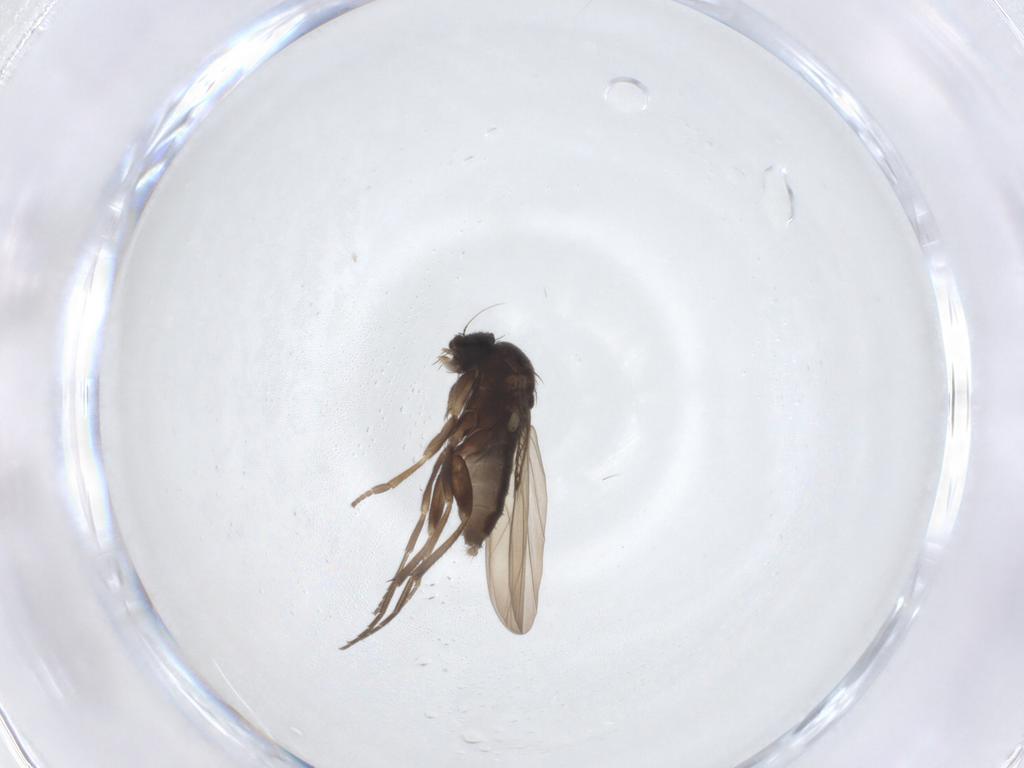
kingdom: Animalia
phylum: Arthropoda
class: Insecta
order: Diptera
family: Phoridae
